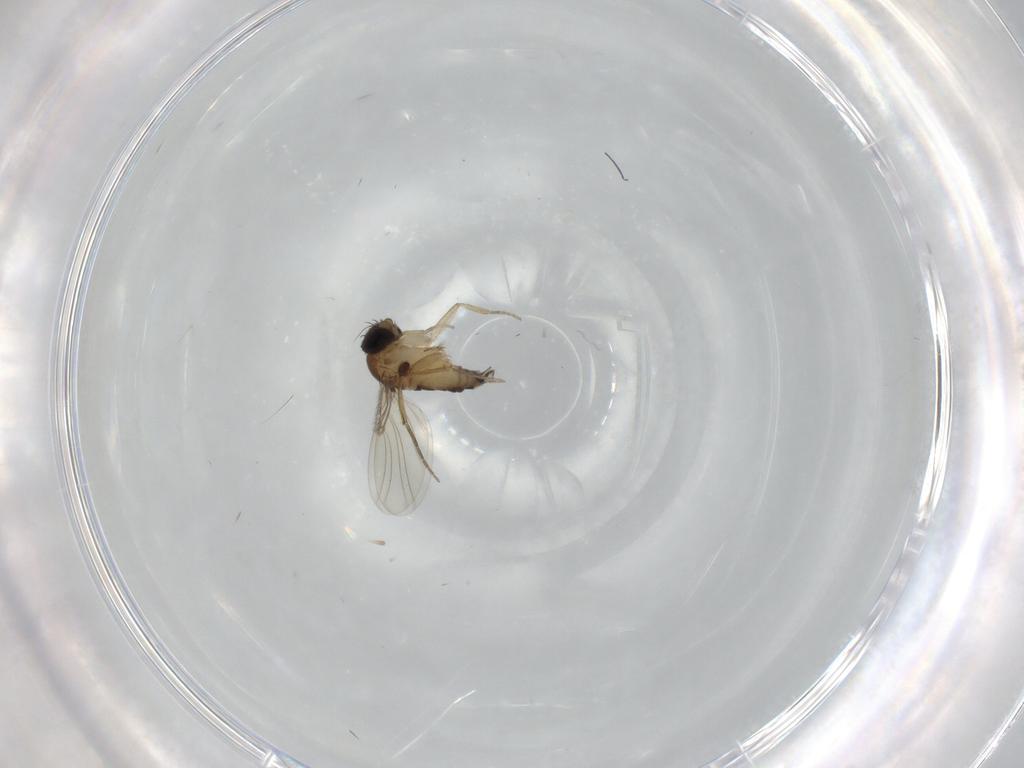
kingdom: Animalia
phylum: Arthropoda
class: Insecta
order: Diptera
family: Phoridae
